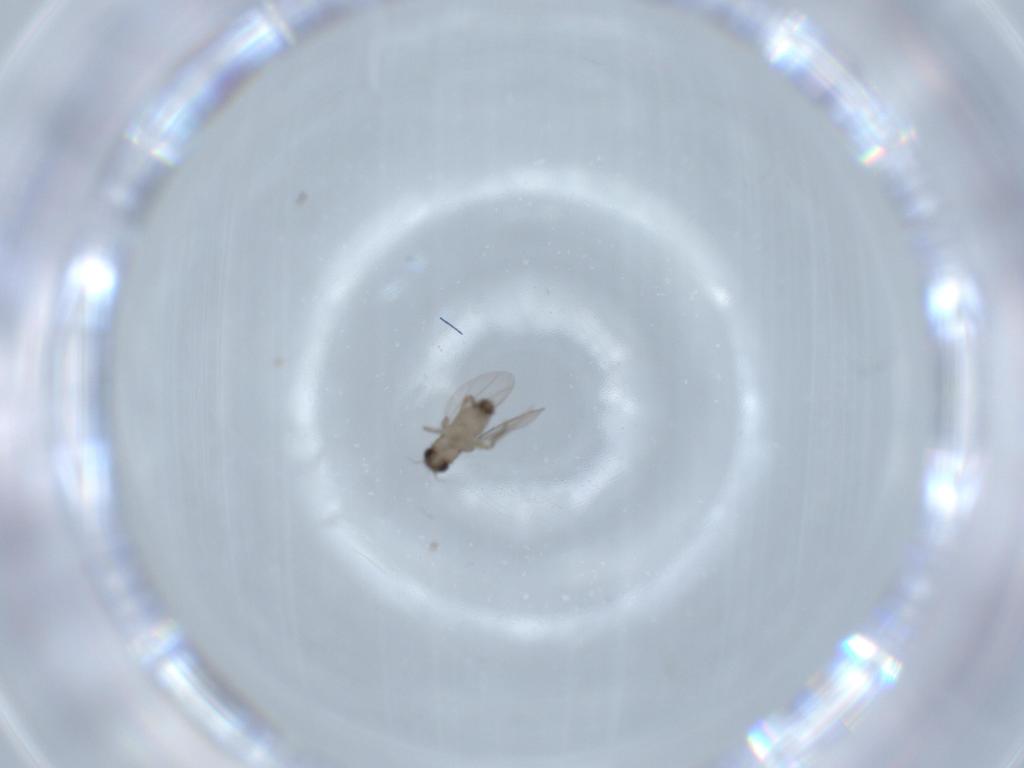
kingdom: Animalia
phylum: Arthropoda
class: Insecta
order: Diptera
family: Phoridae
